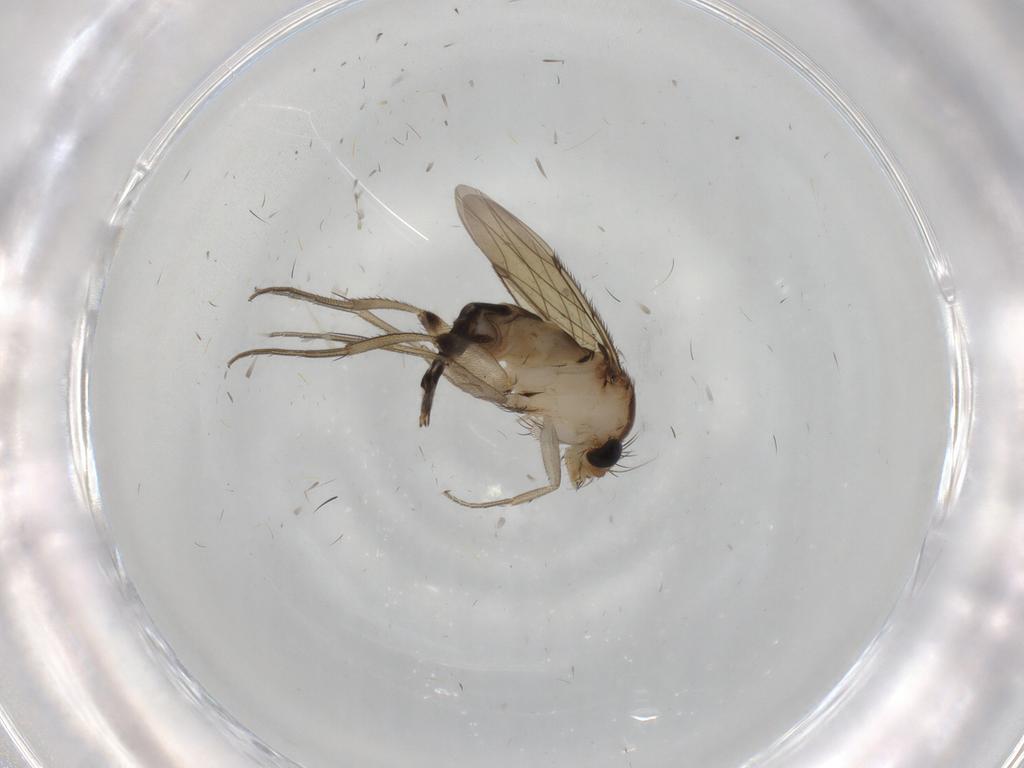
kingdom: Animalia
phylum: Arthropoda
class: Insecta
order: Diptera
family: Phoridae
